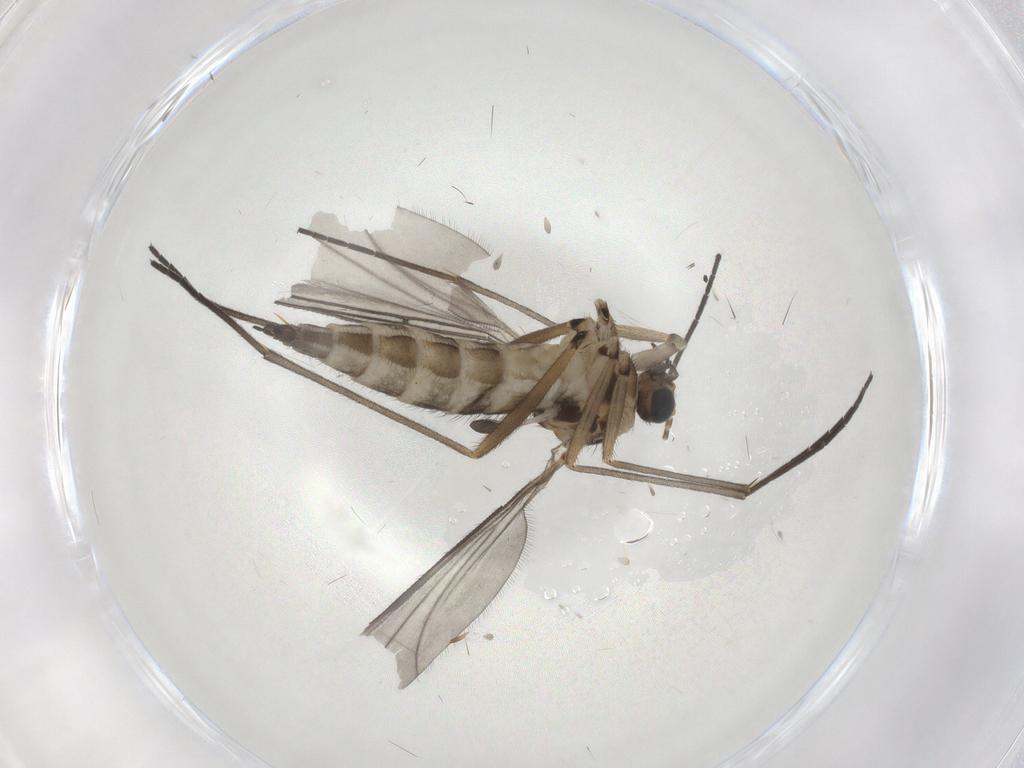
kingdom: Animalia
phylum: Arthropoda
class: Insecta
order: Diptera
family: Sciaridae
